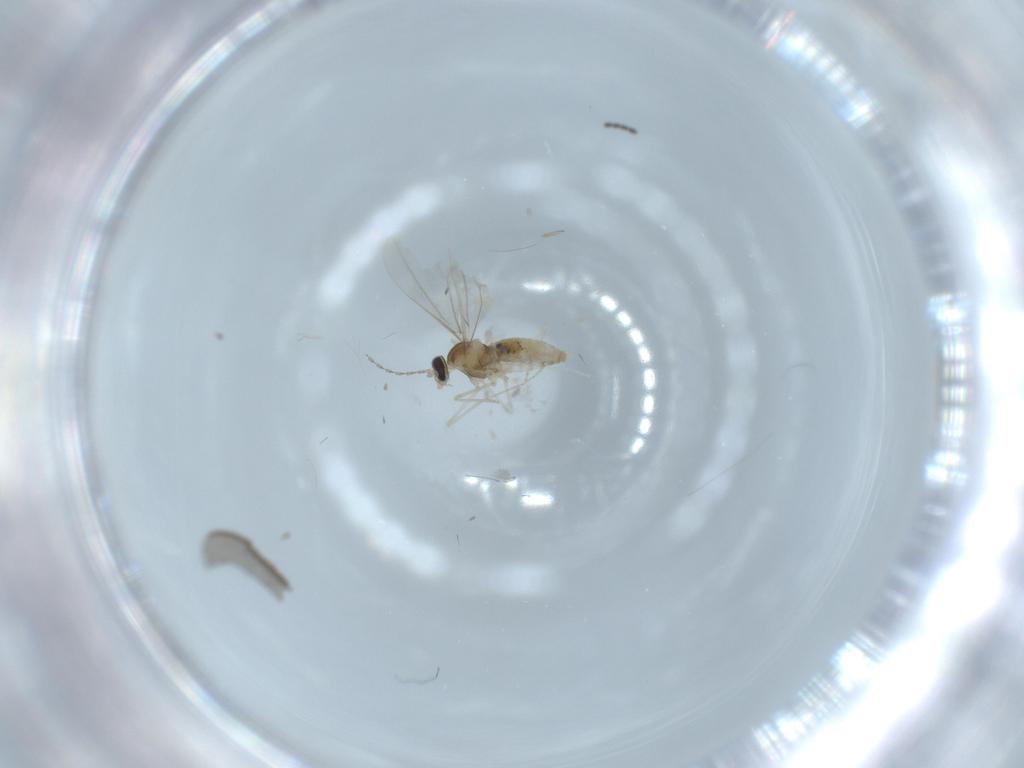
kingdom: Animalia
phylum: Arthropoda
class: Insecta
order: Diptera
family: Sciaridae
